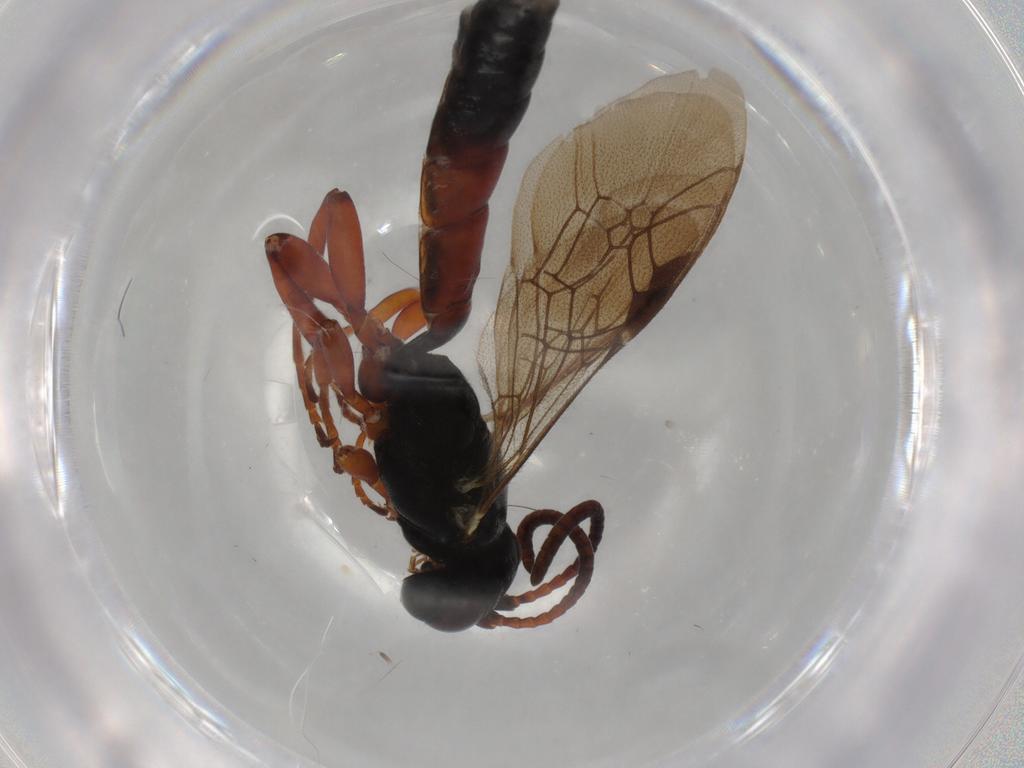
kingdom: Animalia
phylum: Arthropoda
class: Insecta
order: Hymenoptera
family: Ichneumonidae
